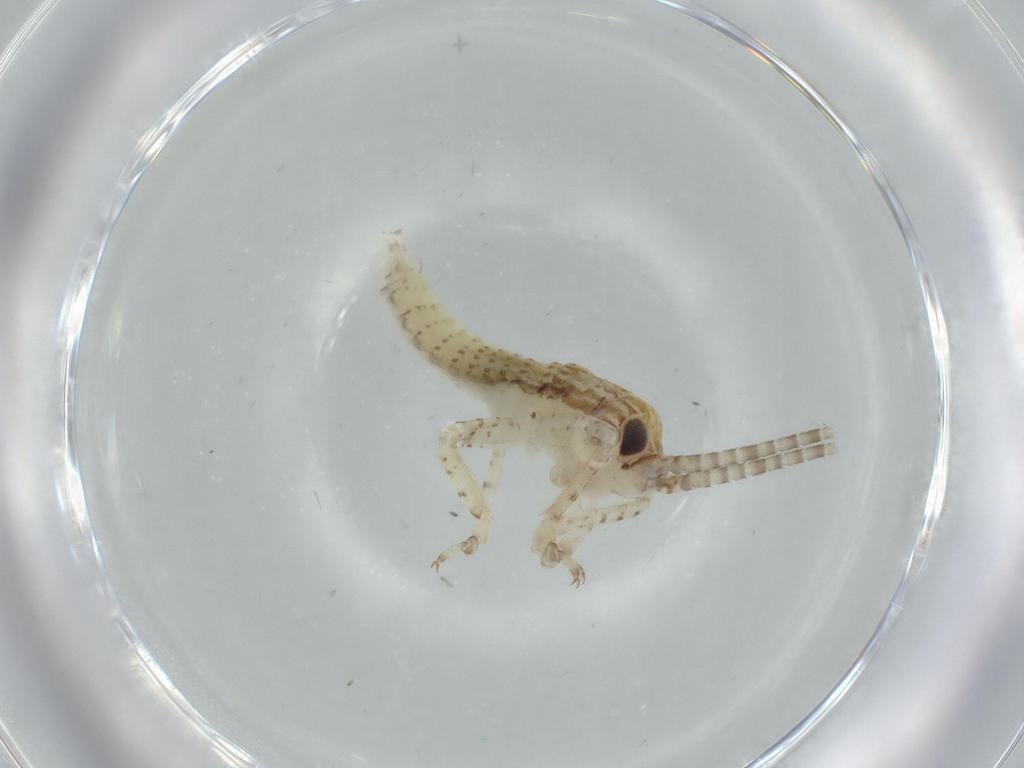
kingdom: Animalia
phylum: Arthropoda
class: Insecta
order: Orthoptera
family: Gryllidae
